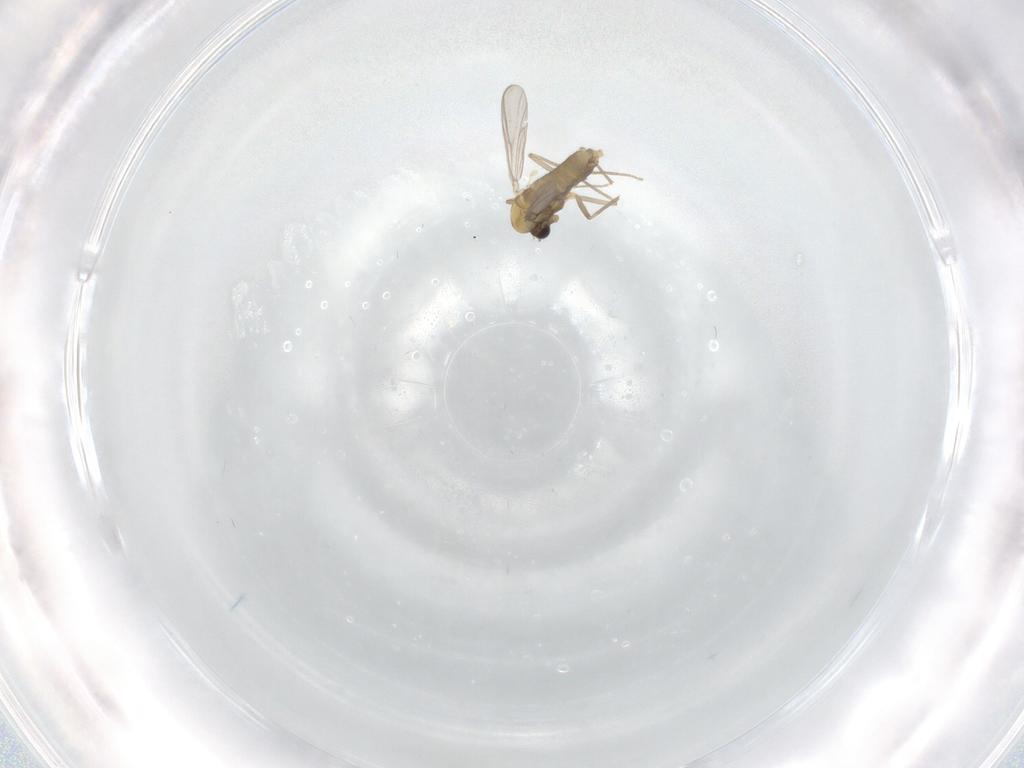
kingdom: Animalia
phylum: Arthropoda
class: Insecta
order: Diptera
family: Chironomidae
